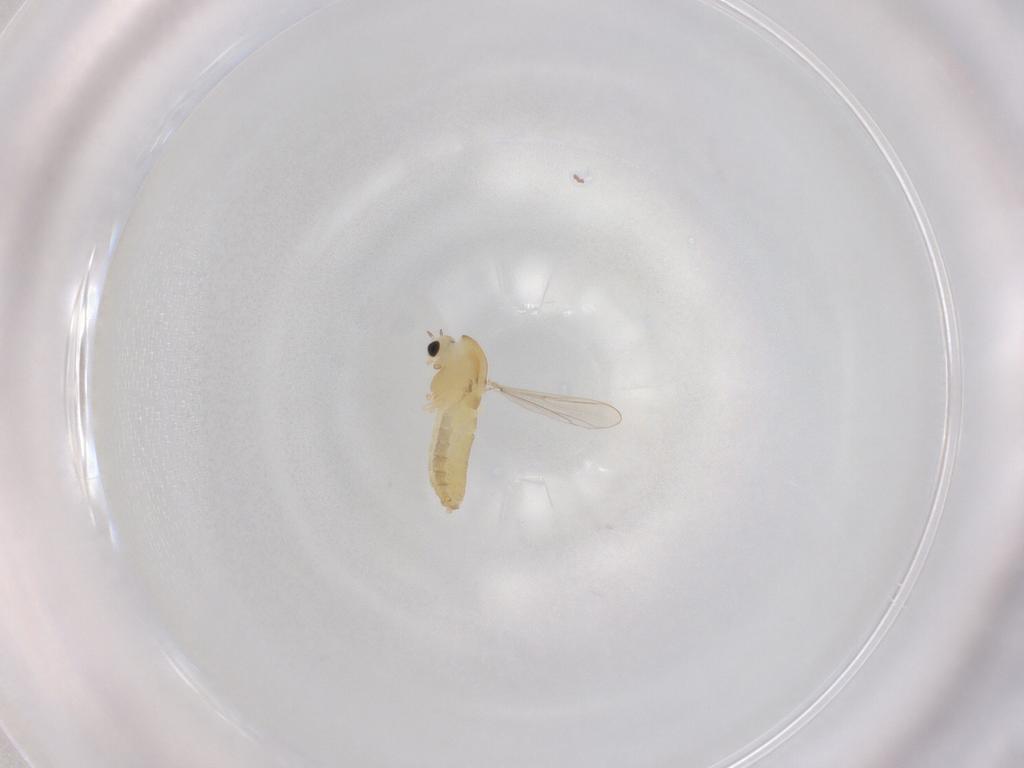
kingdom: Animalia
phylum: Arthropoda
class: Insecta
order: Diptera
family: Chironomidae
